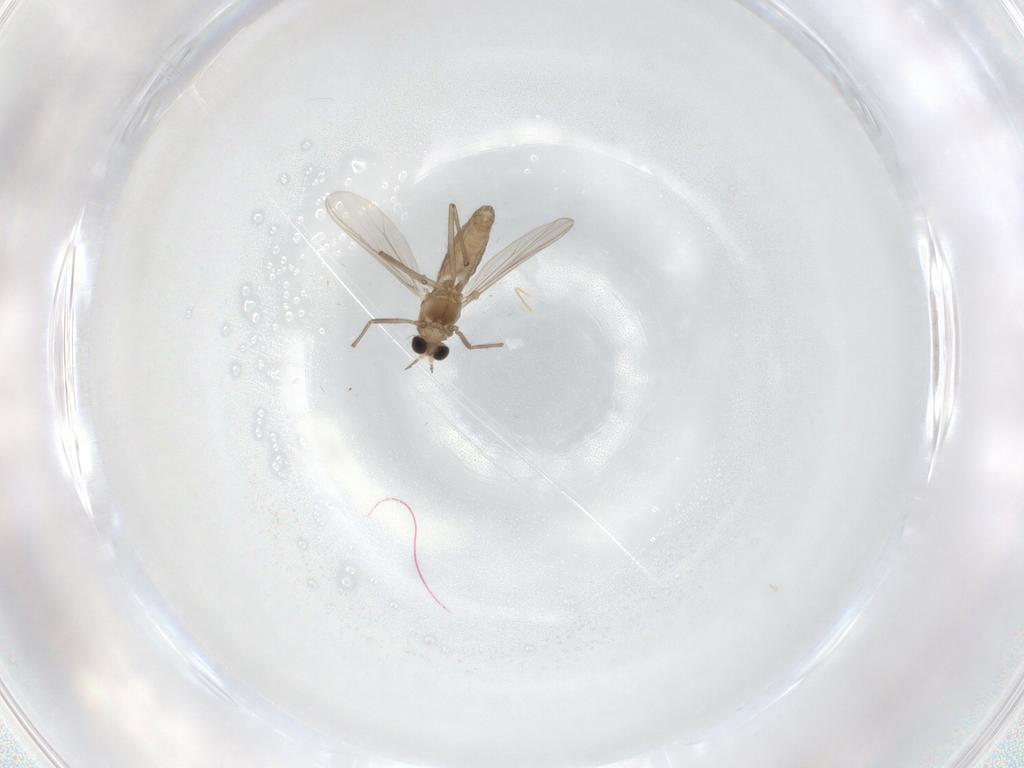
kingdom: Animalia
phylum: Arthropoda
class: Insecta
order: Diptera
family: Chironomidae
